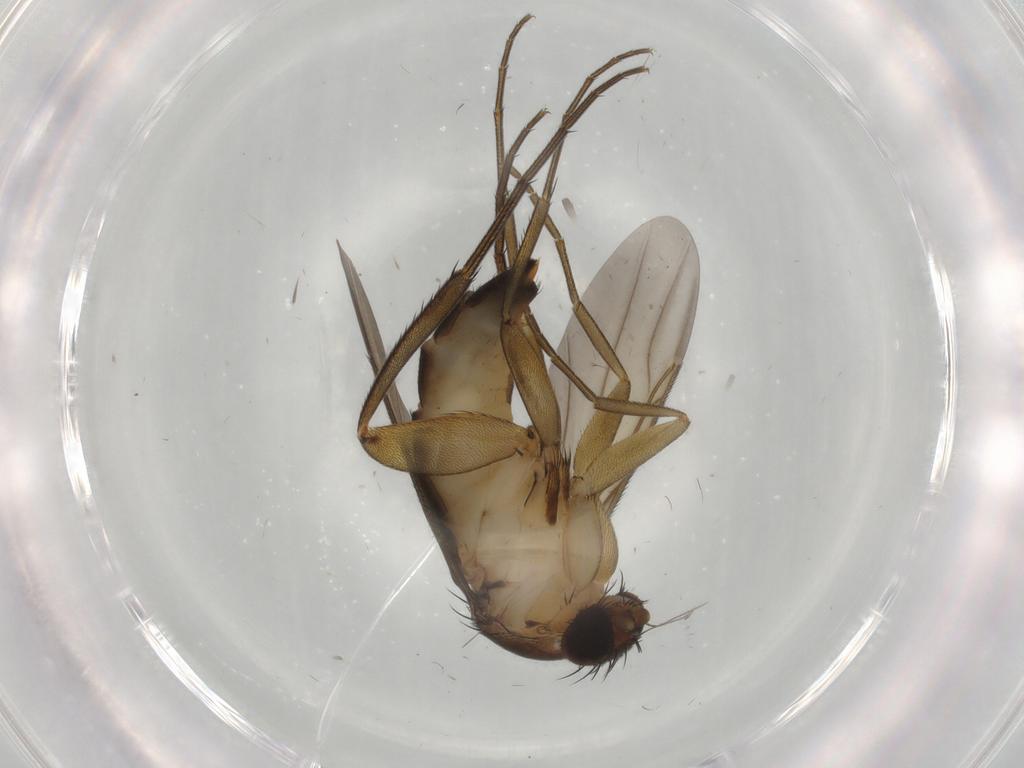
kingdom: Animalia
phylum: Arthropoda
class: Insecta
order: Diptera
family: Phoridae
